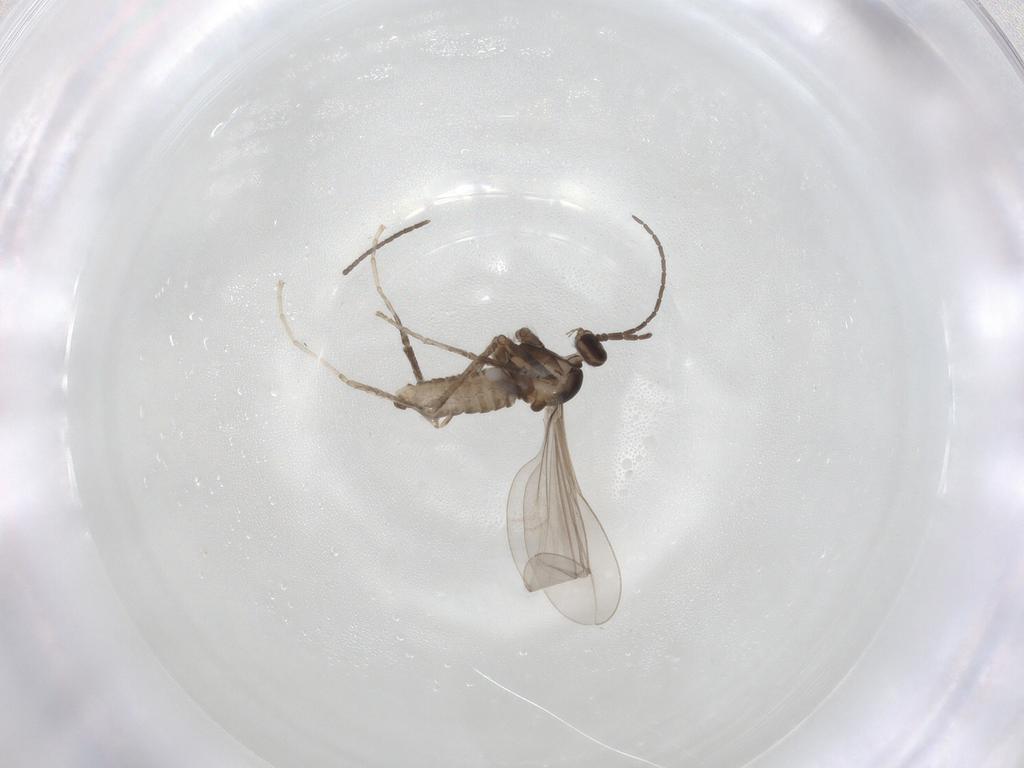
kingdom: Animalia
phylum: Arthropoda
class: Insecta
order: Diptera
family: Cecidomyiidae
